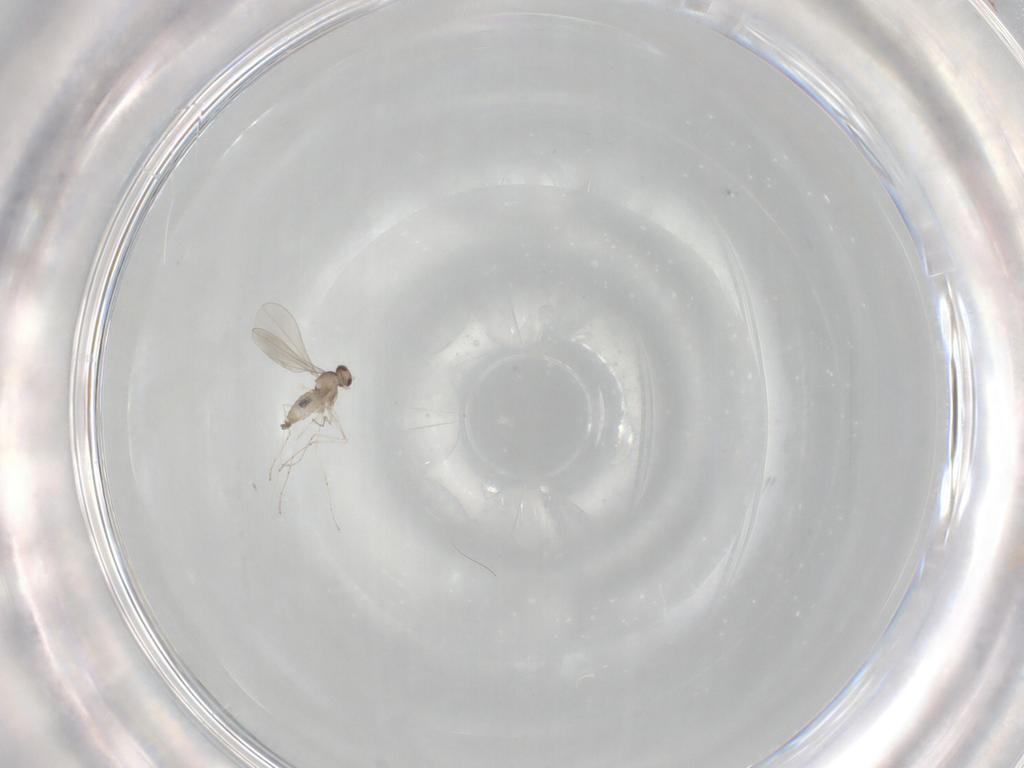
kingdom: Animalia
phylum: Arthropoda
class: Insecta
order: Diptera
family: Cecidomyiidae
